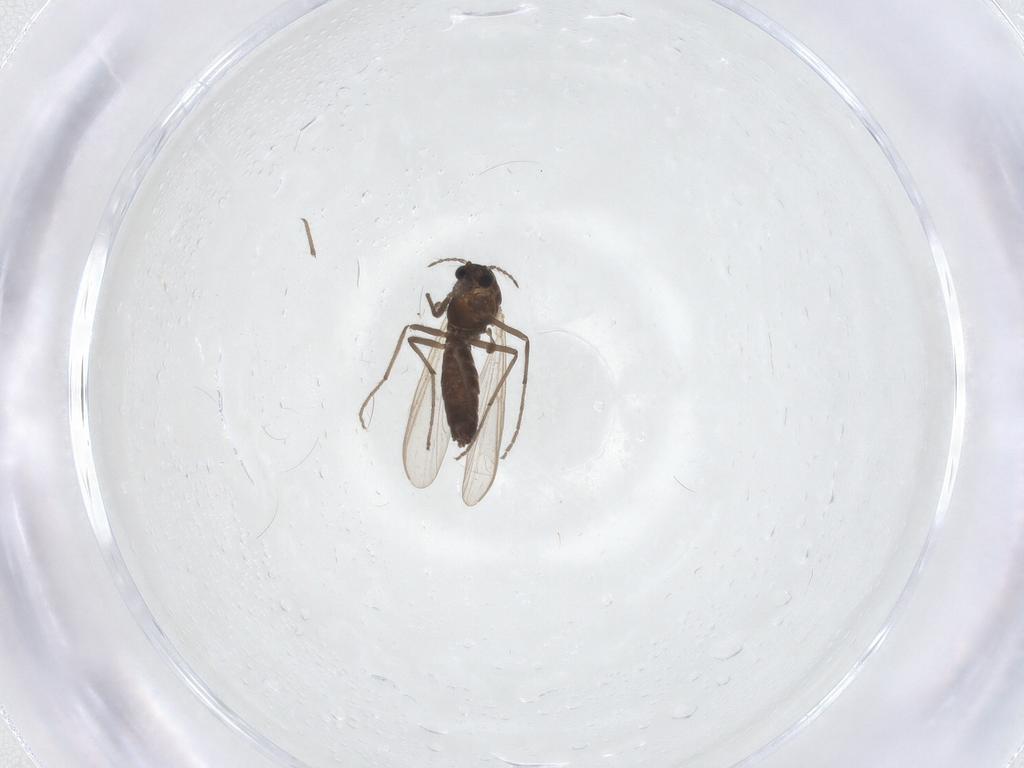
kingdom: Animalia
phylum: Arthropoda
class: Insecta
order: Diptera
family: Chironomidae
